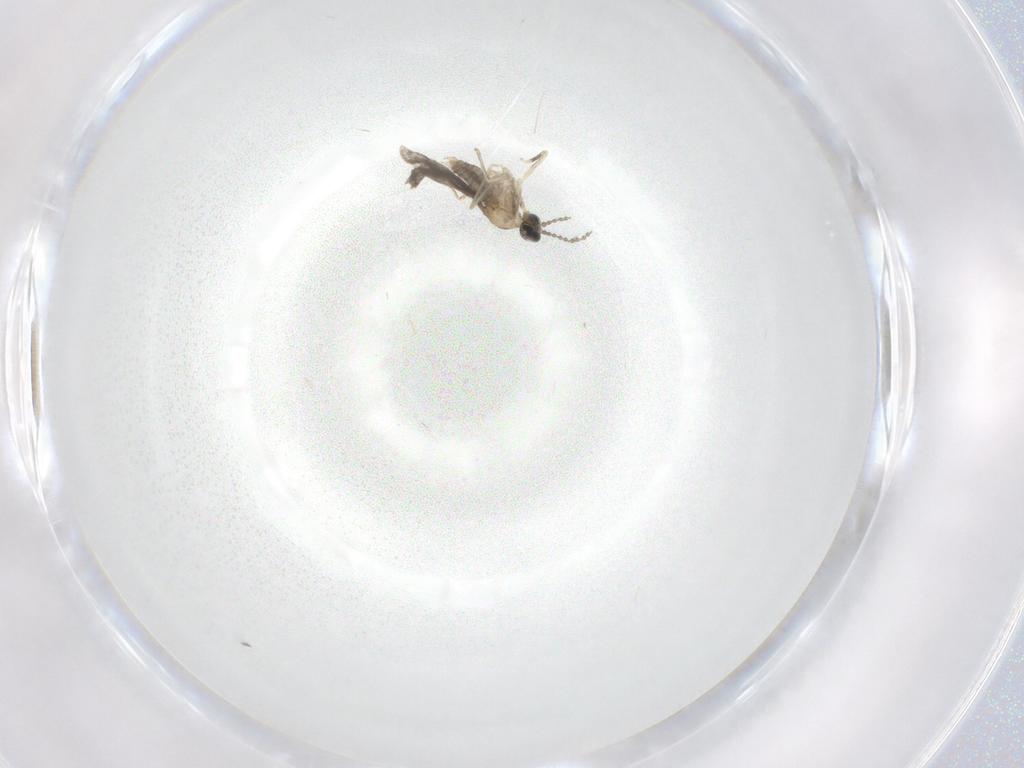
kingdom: Animalia
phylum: Arthropoda
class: Insecta
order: Diptera
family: Cecidomyiidae
